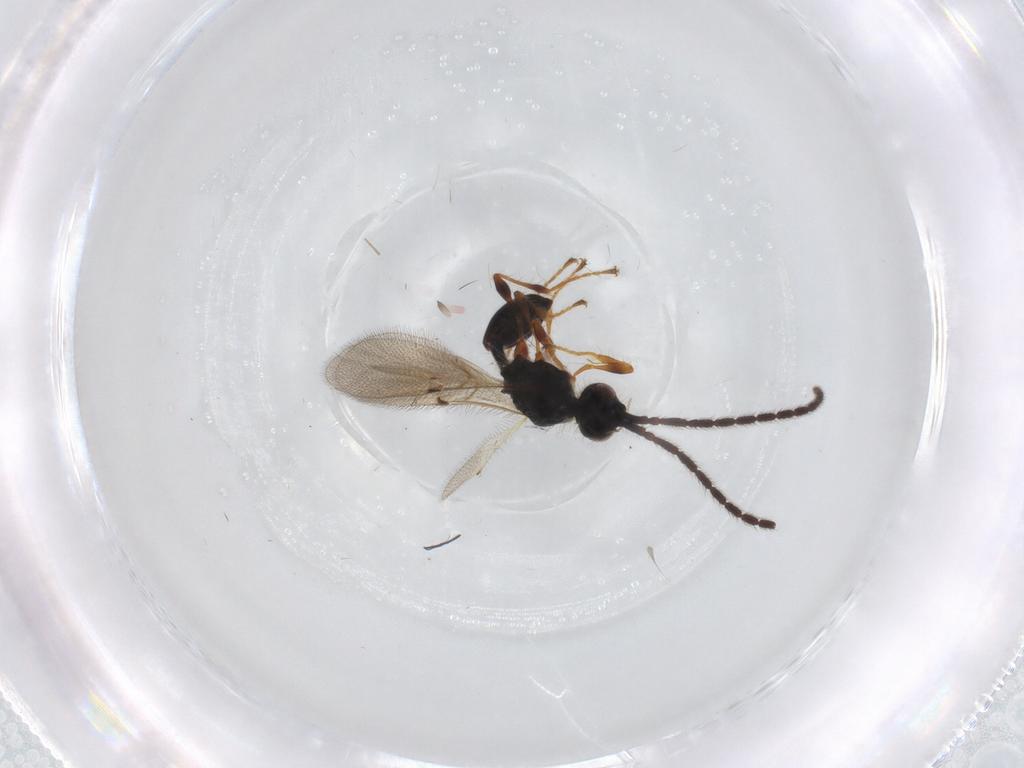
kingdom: Animalia
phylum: Arthropoda
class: Insecta
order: Hymenoptera
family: Diapriidae
